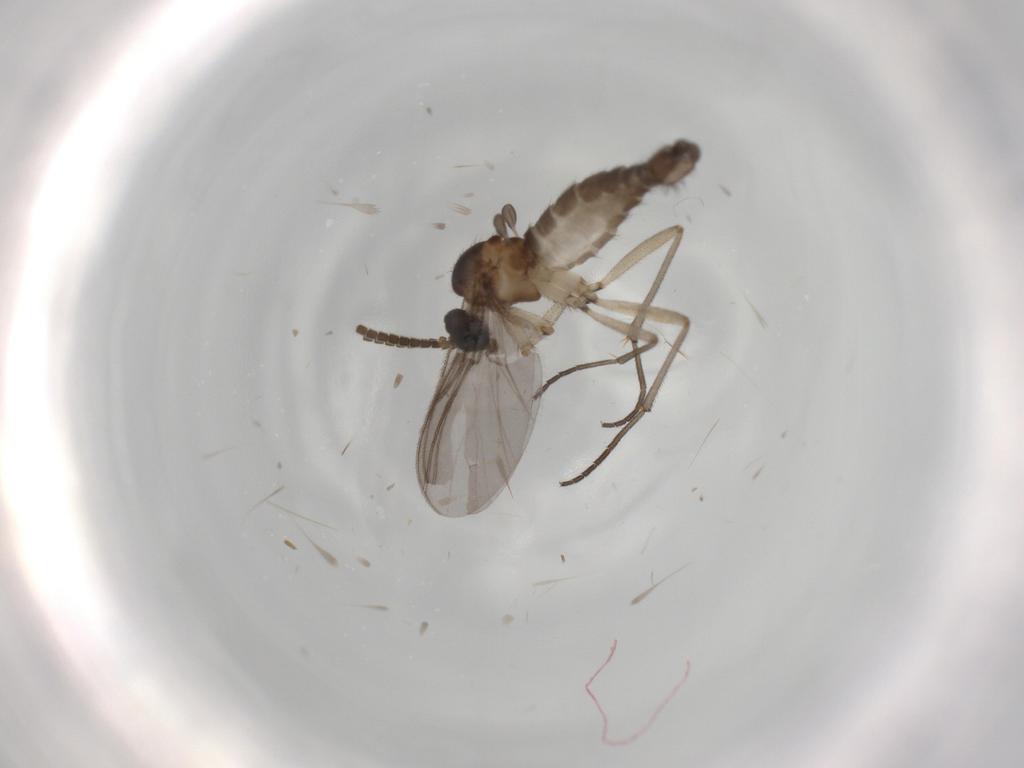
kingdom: Animalia
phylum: Arthropoda
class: Insecta
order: Diptera
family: Sciaridae
